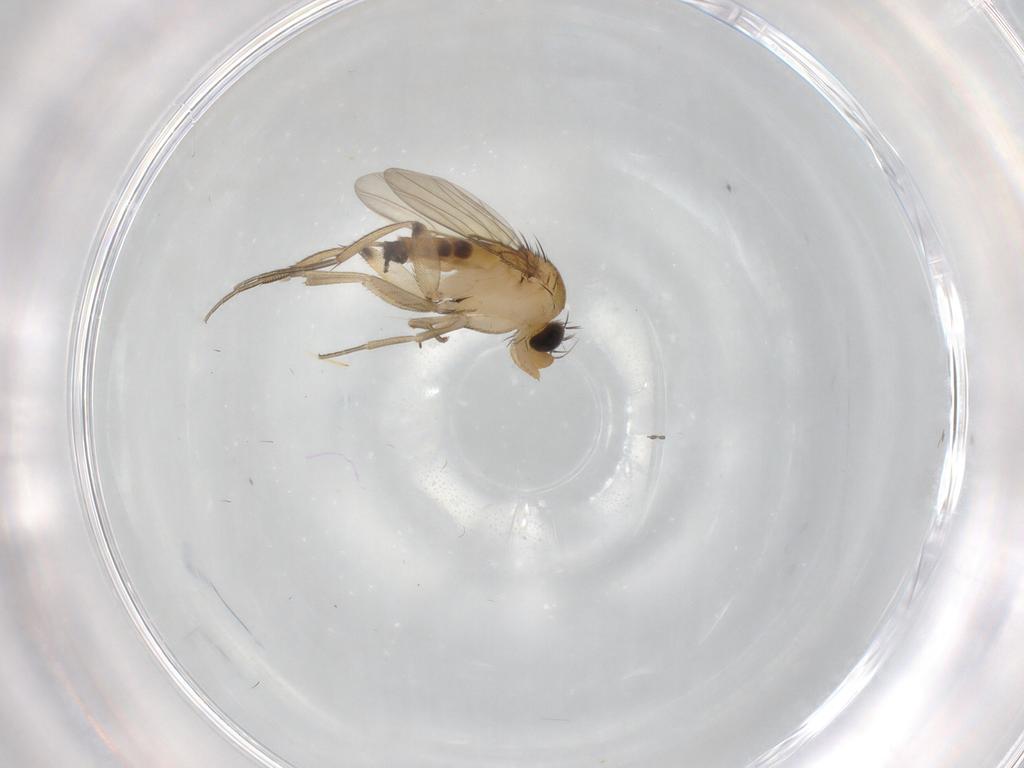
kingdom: Animalia
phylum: Arthropoda
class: Insecta
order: Diptera
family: Phoridae
